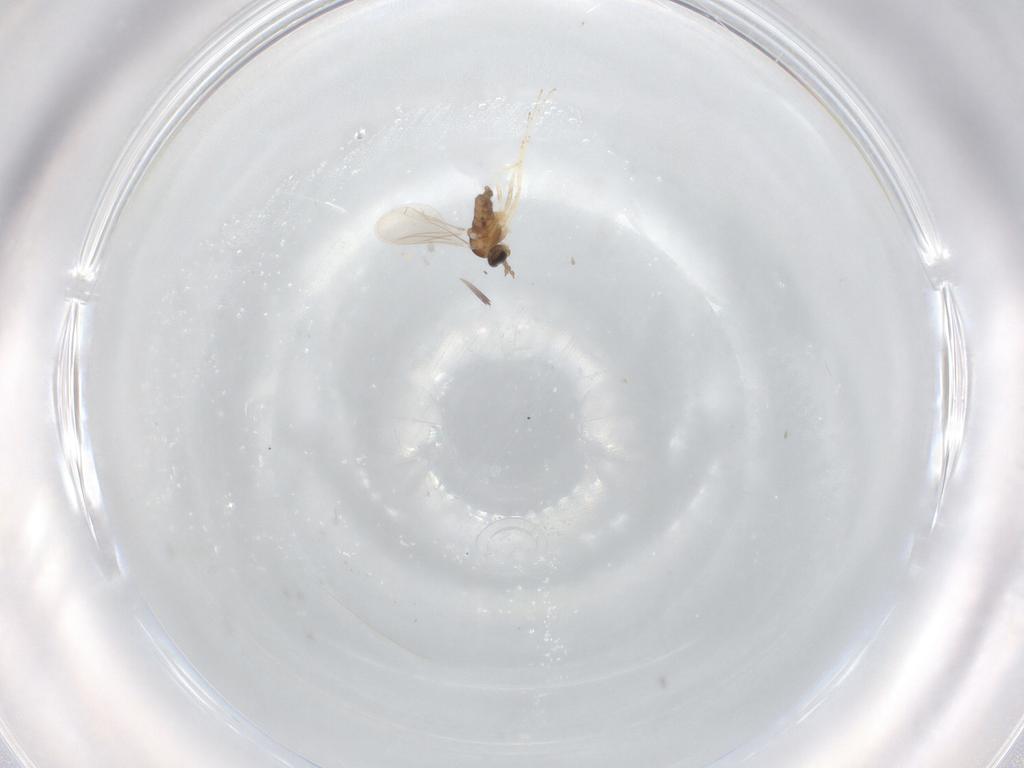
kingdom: Animalia
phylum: Arthropoda
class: Insecta
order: Diptera
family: Cecidomyiidae
